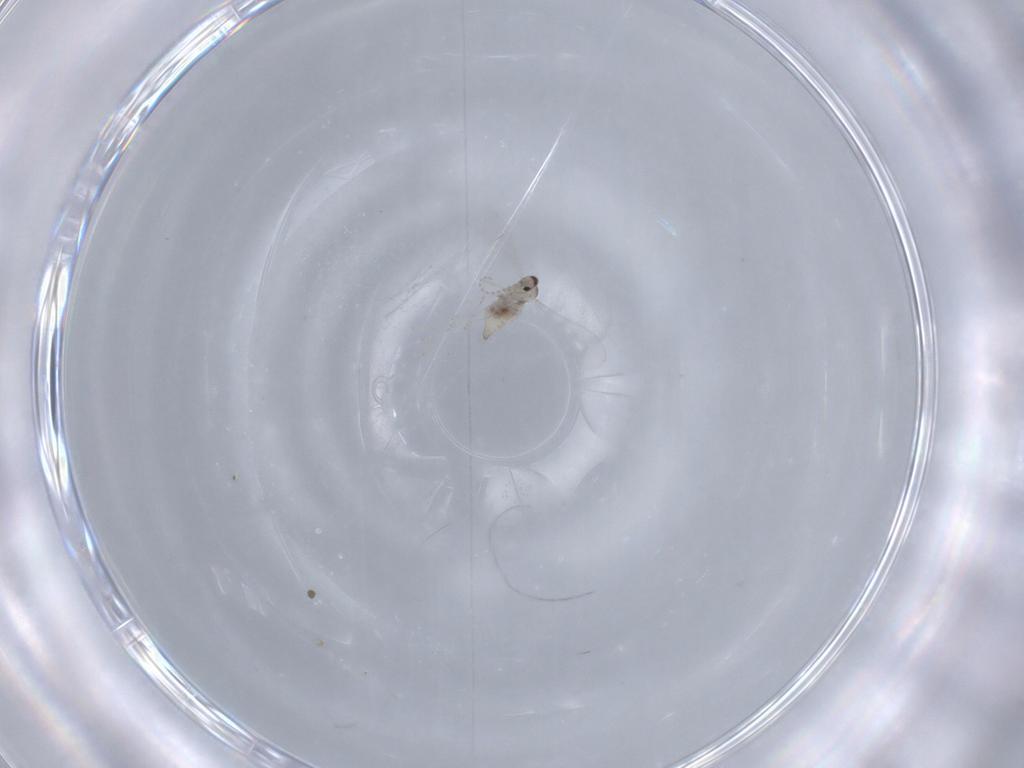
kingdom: Animalia
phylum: Arthropoda
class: Insecta
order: Diptera
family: Cecidomyiidae
